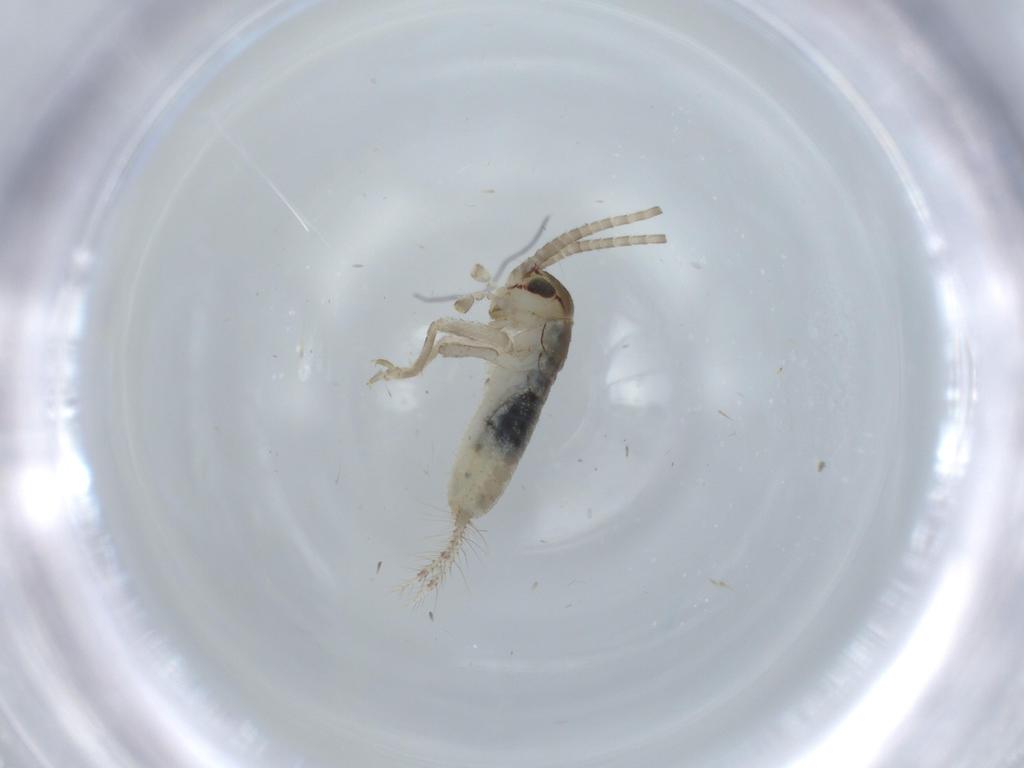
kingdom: Animalia
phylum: Arthropoda
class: Insecta
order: Orthoptera
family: Gryllidae
